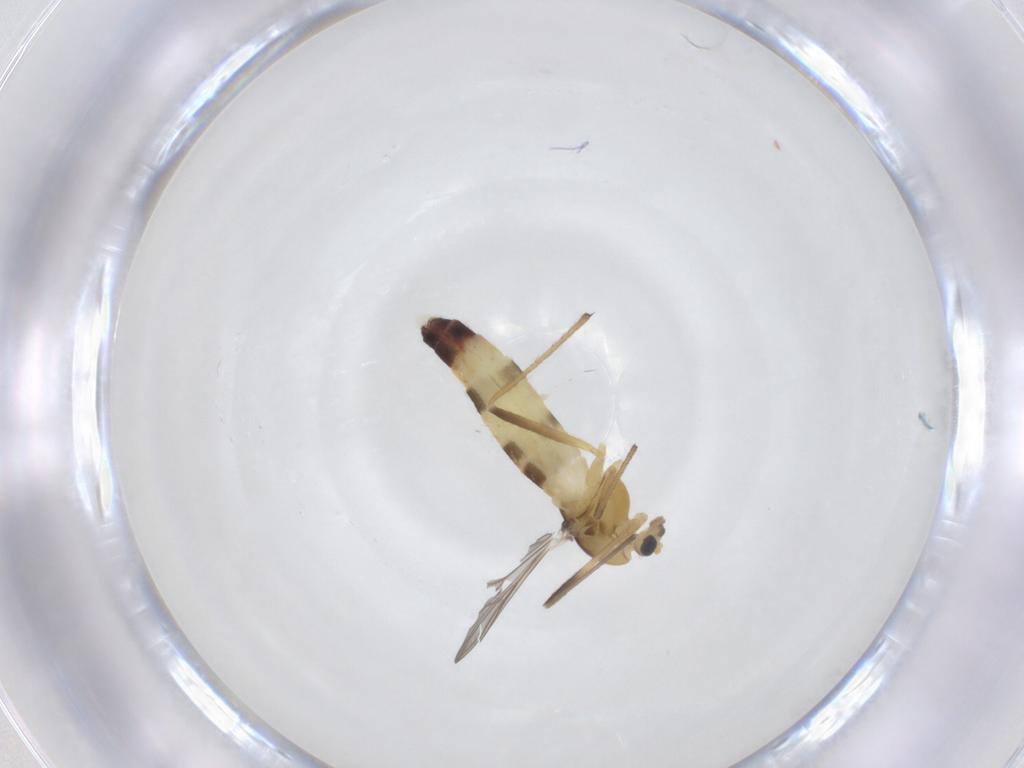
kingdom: Animalia
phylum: Arthropoda
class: Insecta
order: Diptera
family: Chironomidae
